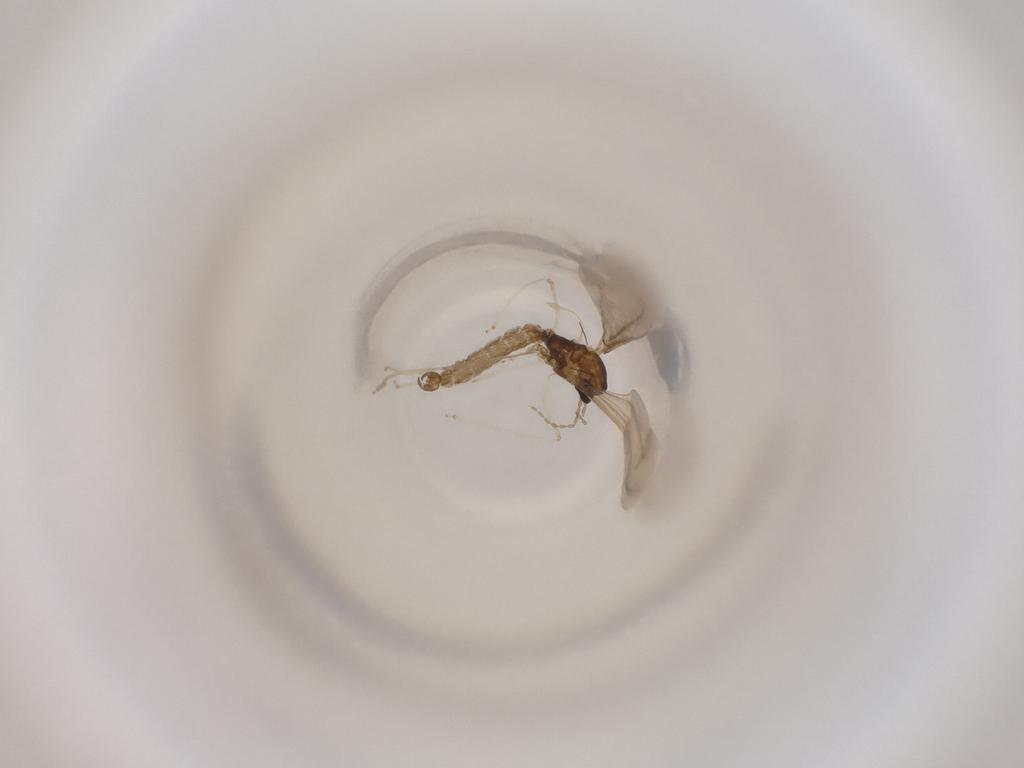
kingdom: Animalia
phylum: Arthropoda
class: Insecta
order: Diptera
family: Cecidomyiidae
